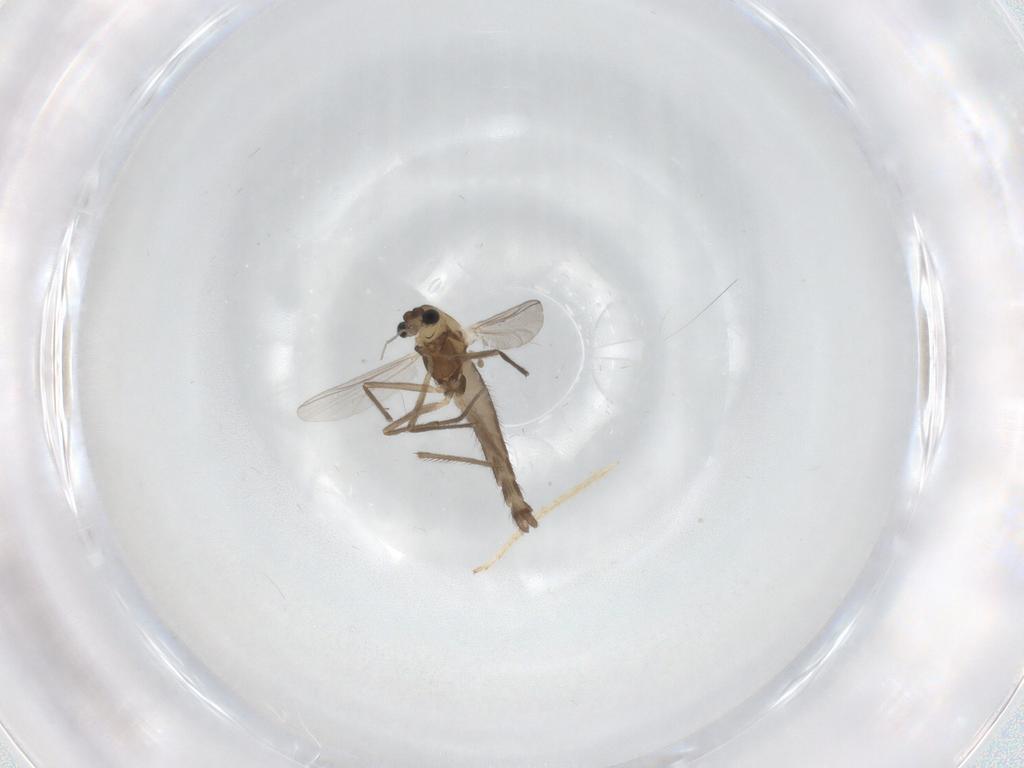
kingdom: Animalia
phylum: Arthropoda
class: Insecta
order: Diptera
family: Chironomidae
